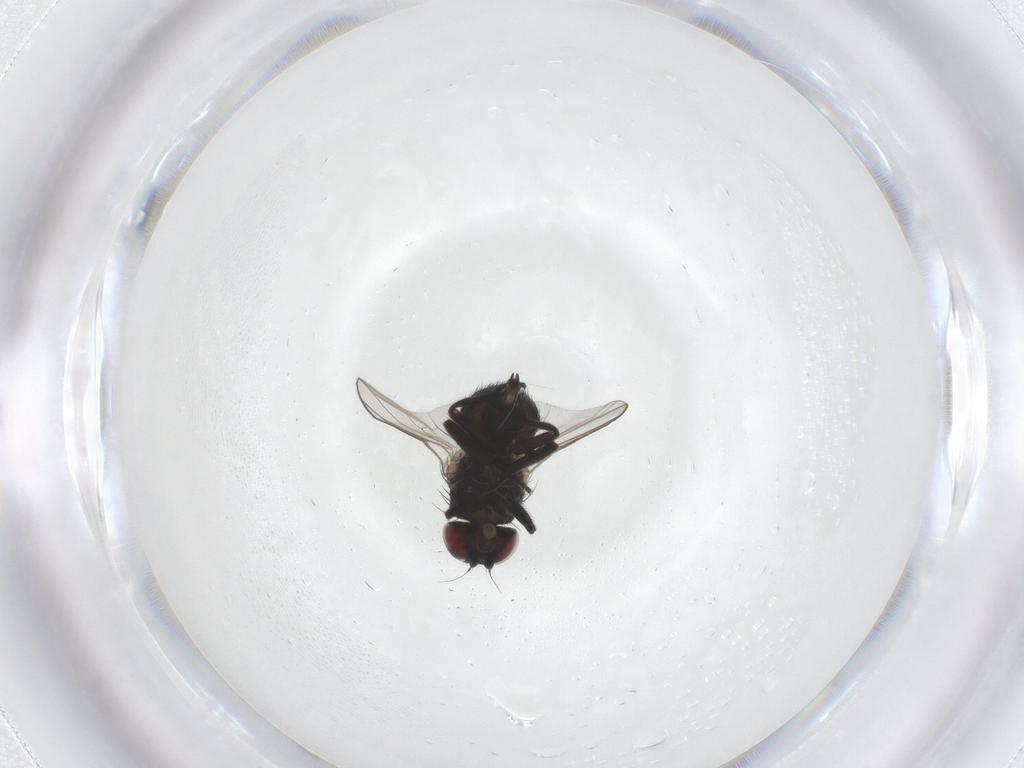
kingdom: Animalia
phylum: Arthropoda
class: Insecta
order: Diptera
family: Agromyzidae
